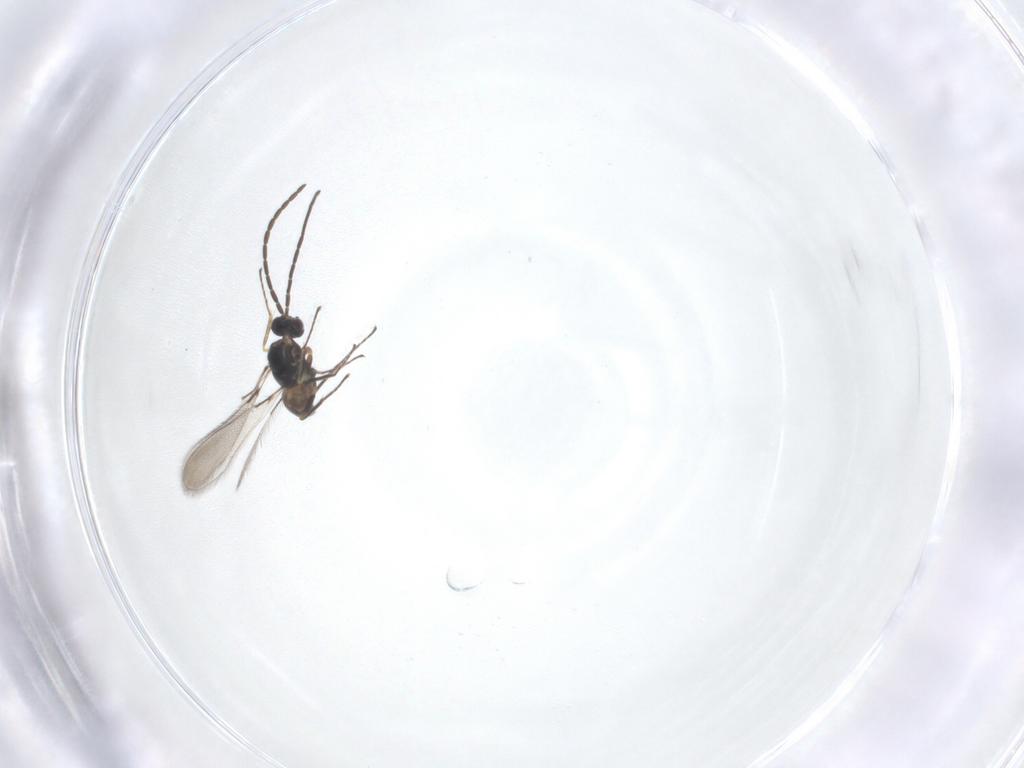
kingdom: Animalia
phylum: Arthropoda
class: Insecta
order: Hymenoptera
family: Mymaridae
